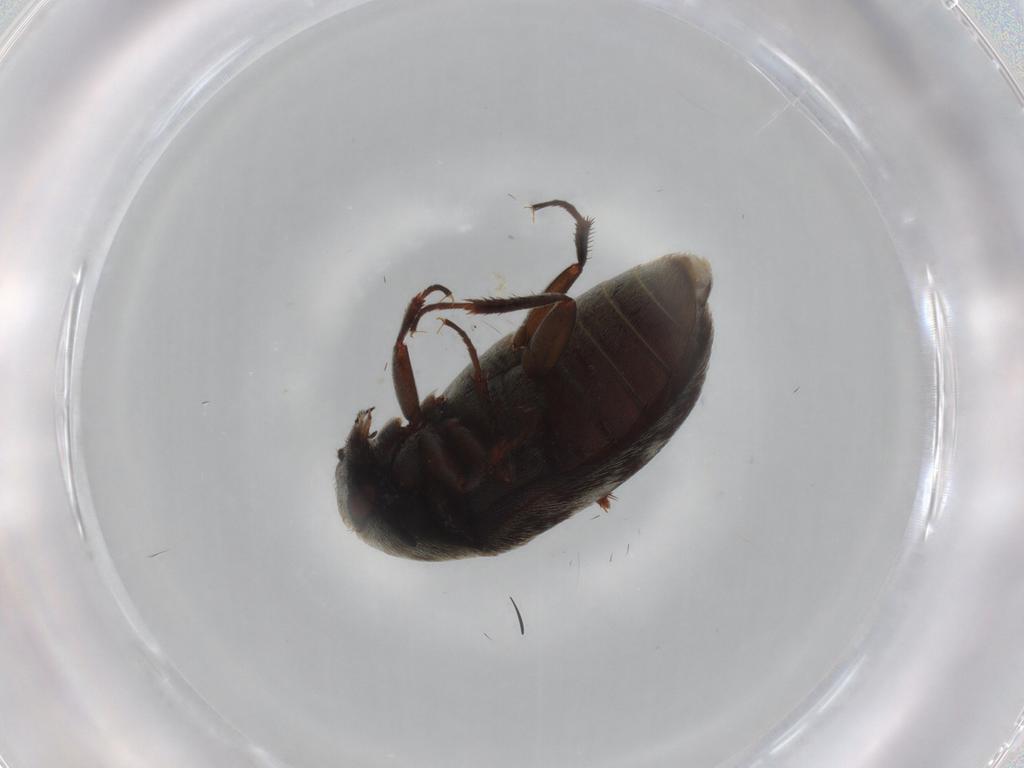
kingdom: Animalia
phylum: Arthropoda
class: Insecta
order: Coleoptera
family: Dermestidae
